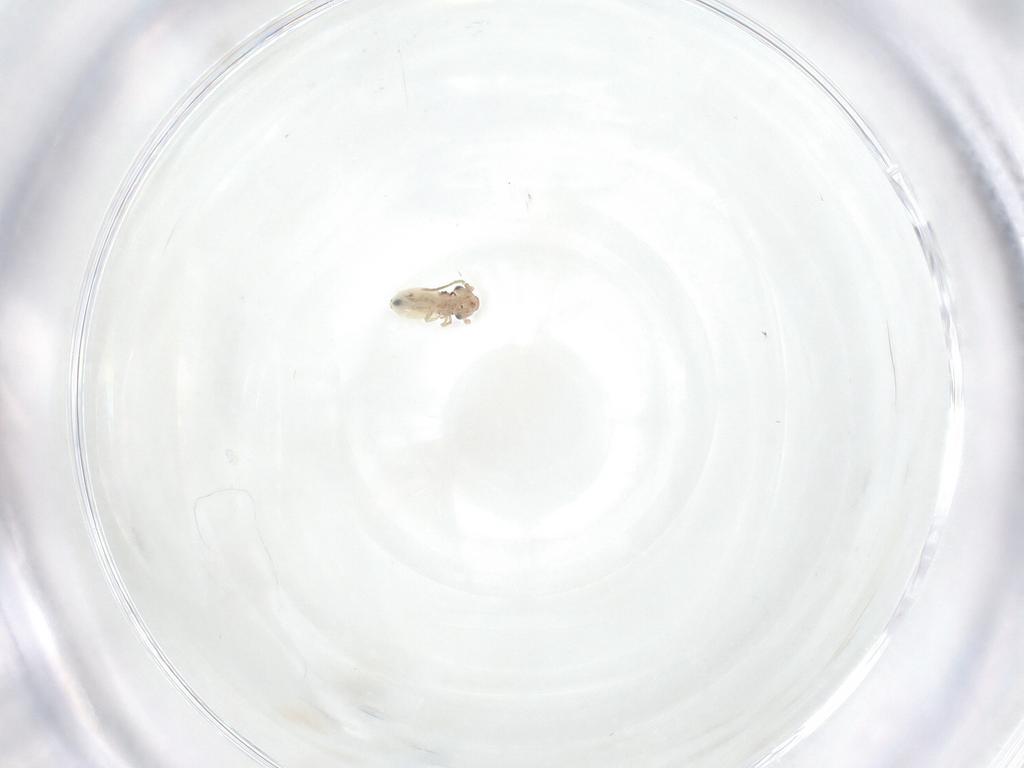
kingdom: Animalia
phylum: Arthropoda
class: Insecta
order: Psocodea
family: Lepidopsocidae
